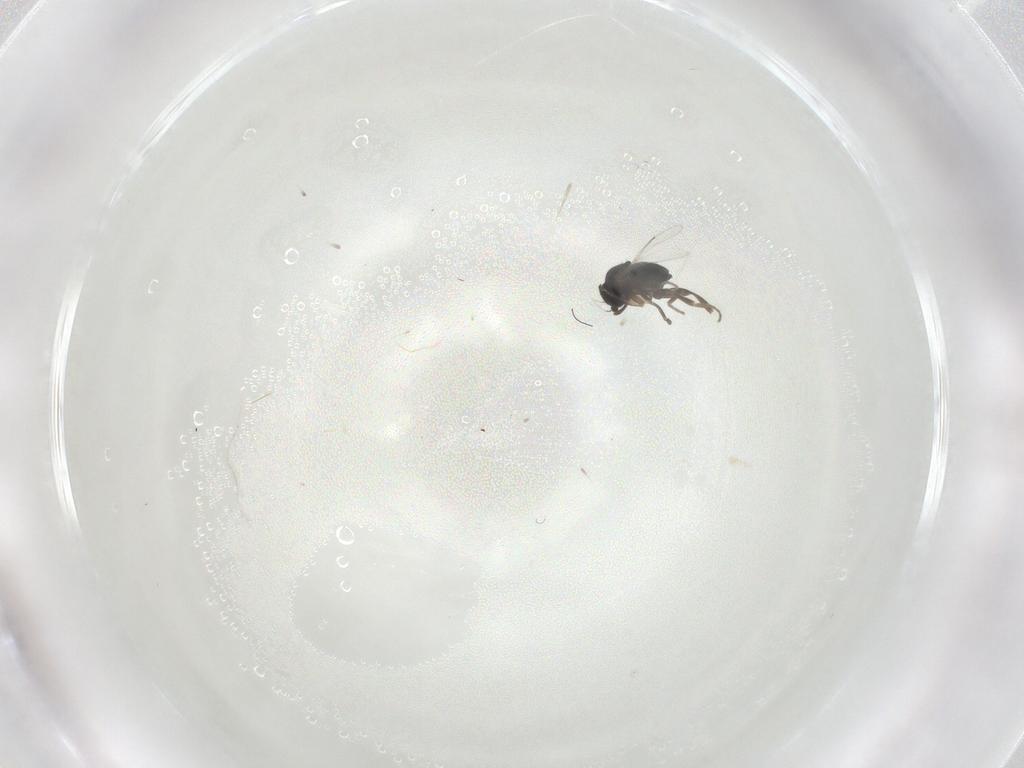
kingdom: Animalia
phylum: Arthropoda
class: Insecta
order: Diptera
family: Phoridae
